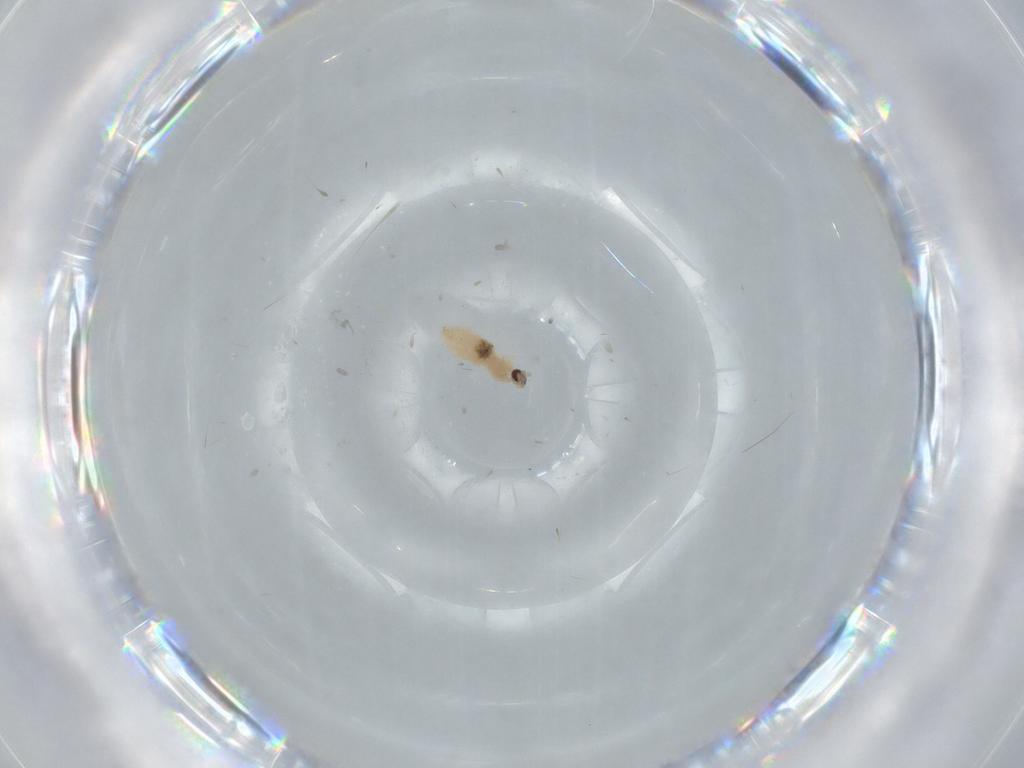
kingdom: Animalia
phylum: Arthropoda
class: Insecta
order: Diptera
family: Cecidomyiidae
